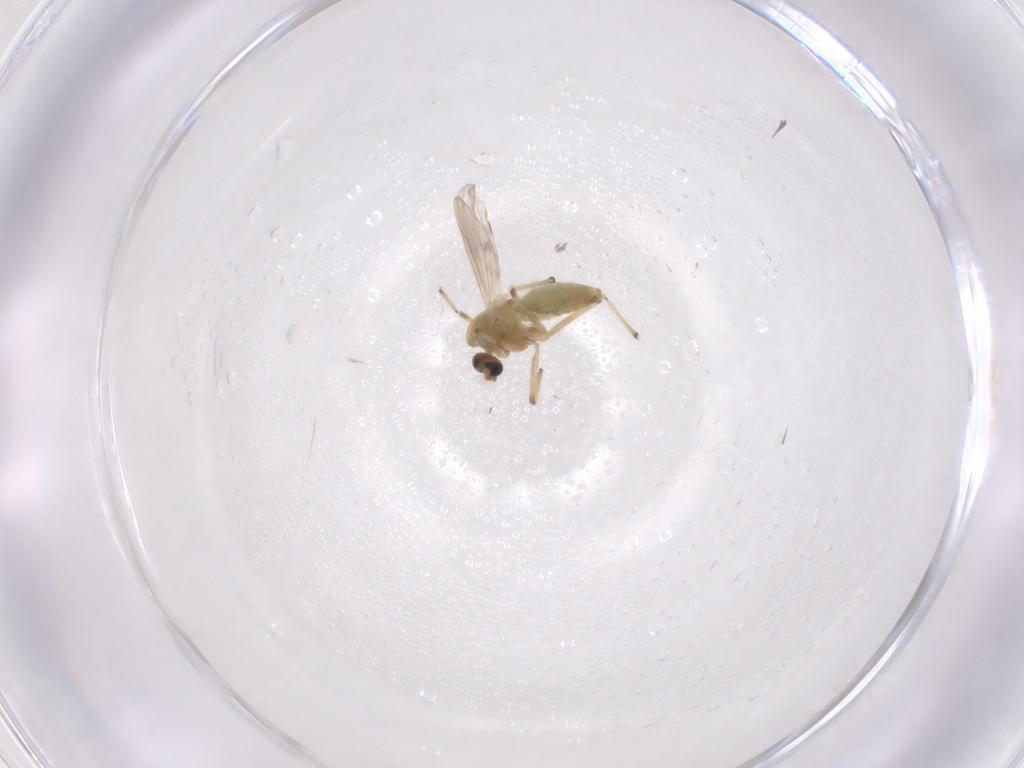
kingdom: Animalia
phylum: Arthropoda
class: Insecta
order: Diptera
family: Chironomidae
